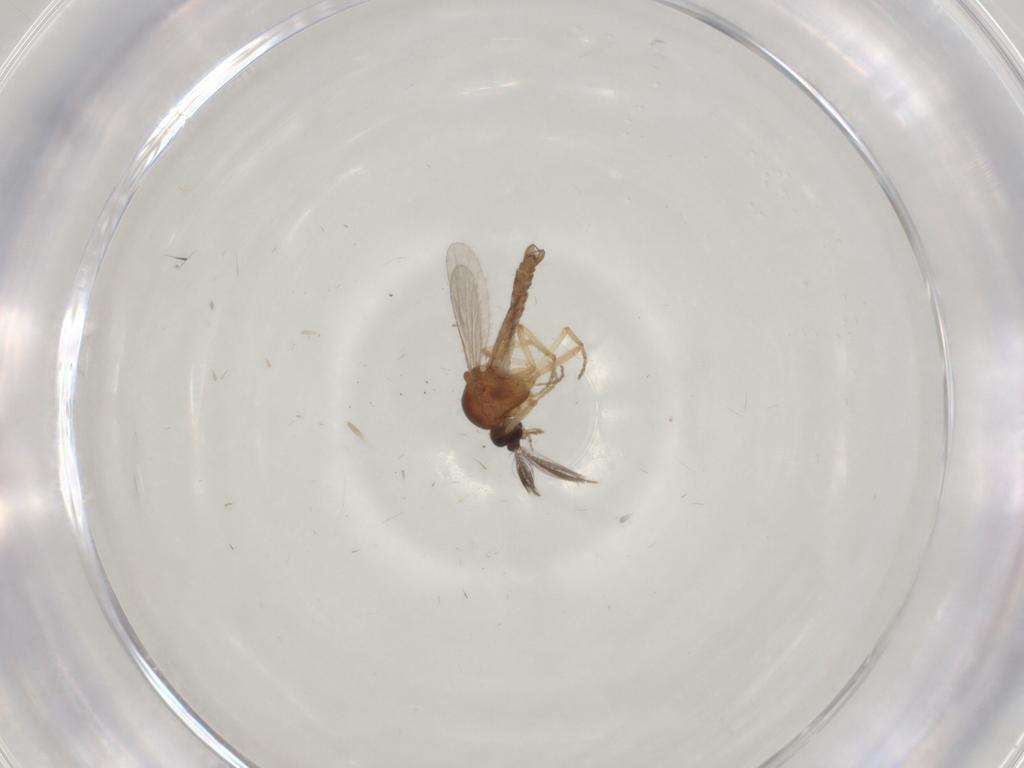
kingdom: Animalia
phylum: Arthropoda
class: Insecta
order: Diptera
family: Ceratopogonidae
